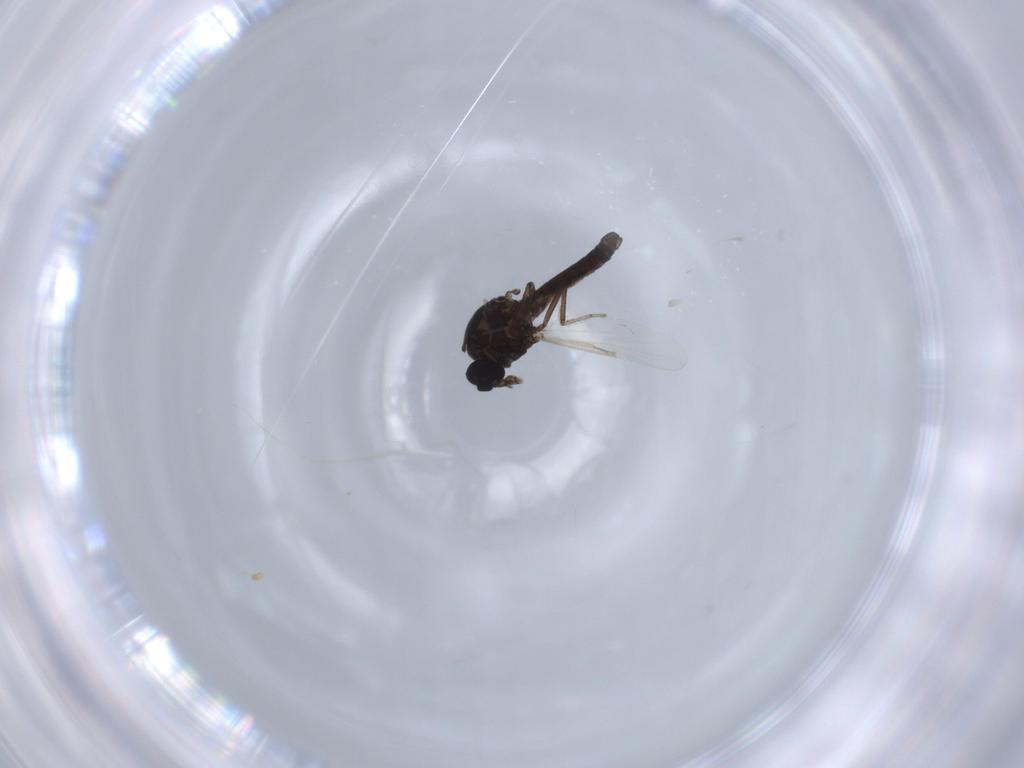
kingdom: Animalia
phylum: Arthropoda
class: Insecta
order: Diptera
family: Ceratopogonidae
